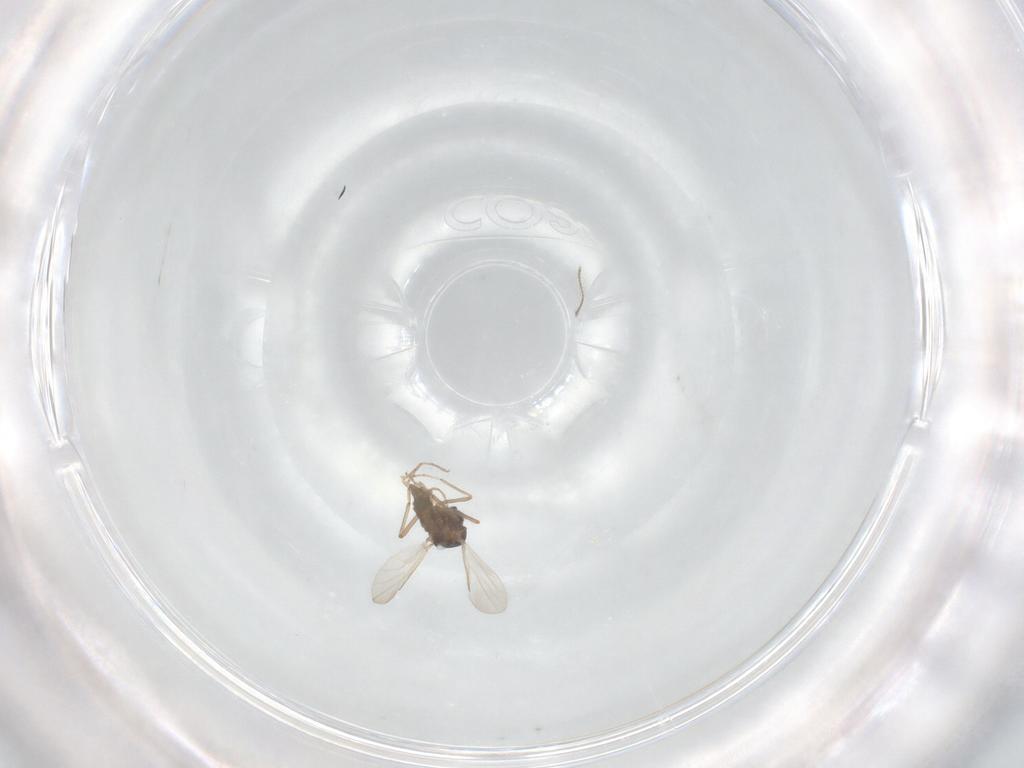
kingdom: Animalia
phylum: Arthropoda
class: Insecta
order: Diptera
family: Ceratopogonidae
